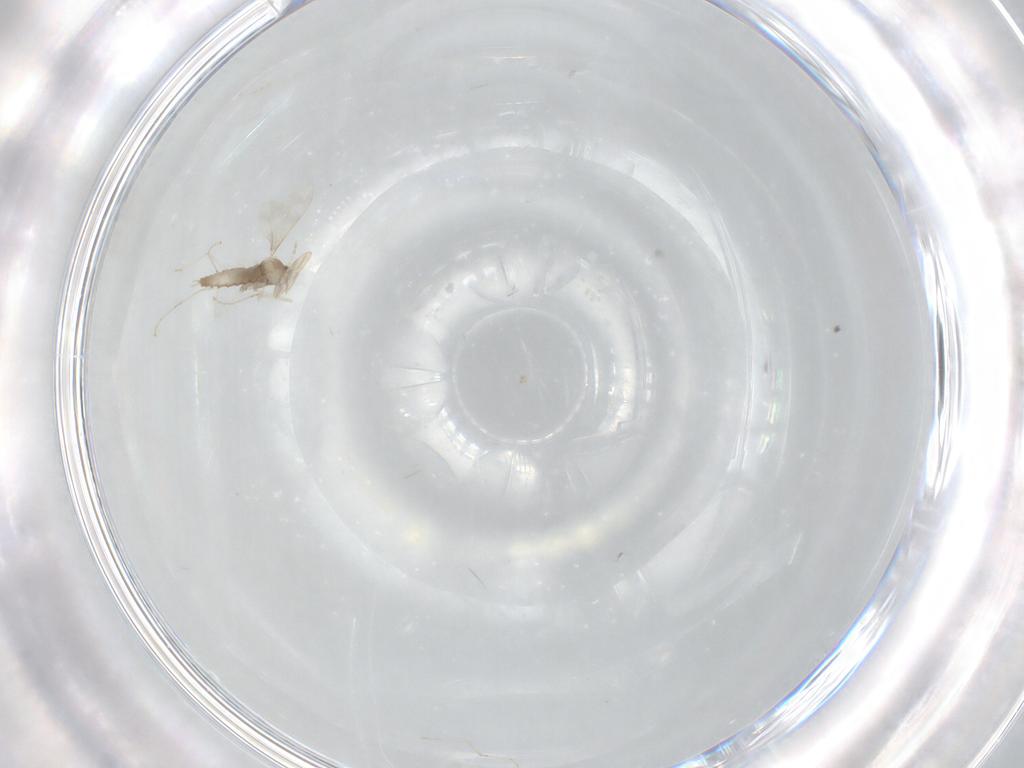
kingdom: Animalia
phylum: Arthropoda
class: Insecta
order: Diptera
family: Cecidomyiidae
